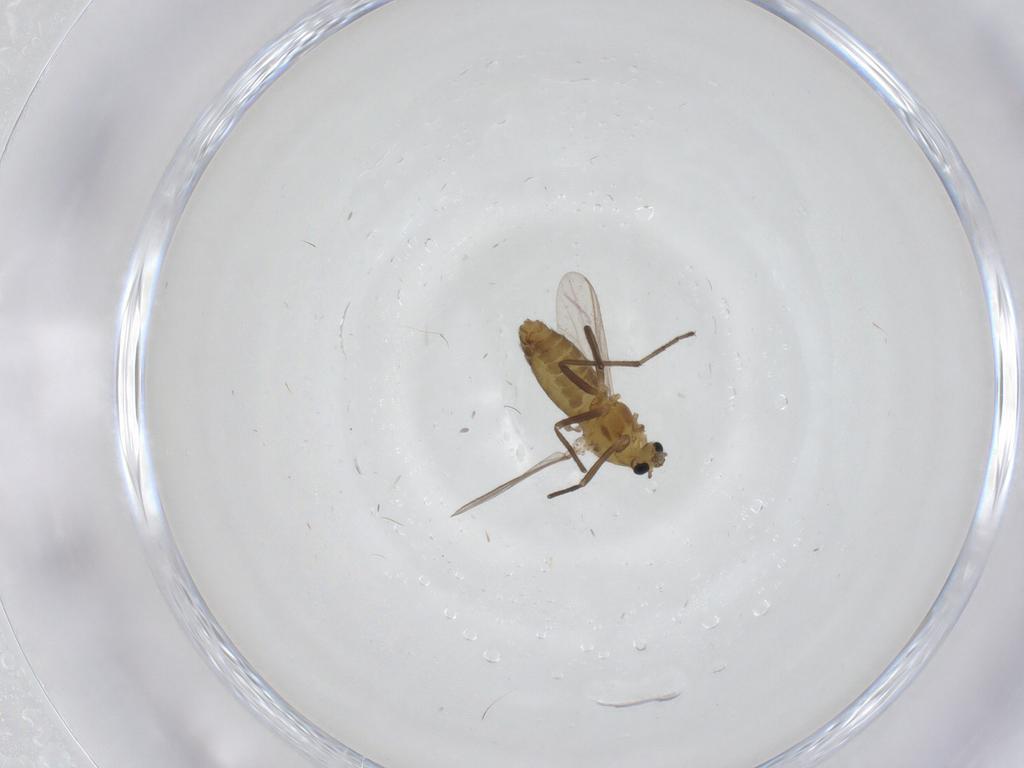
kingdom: Animalia
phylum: Arthropoda
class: Insecta
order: Diptera
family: Chironomidae
